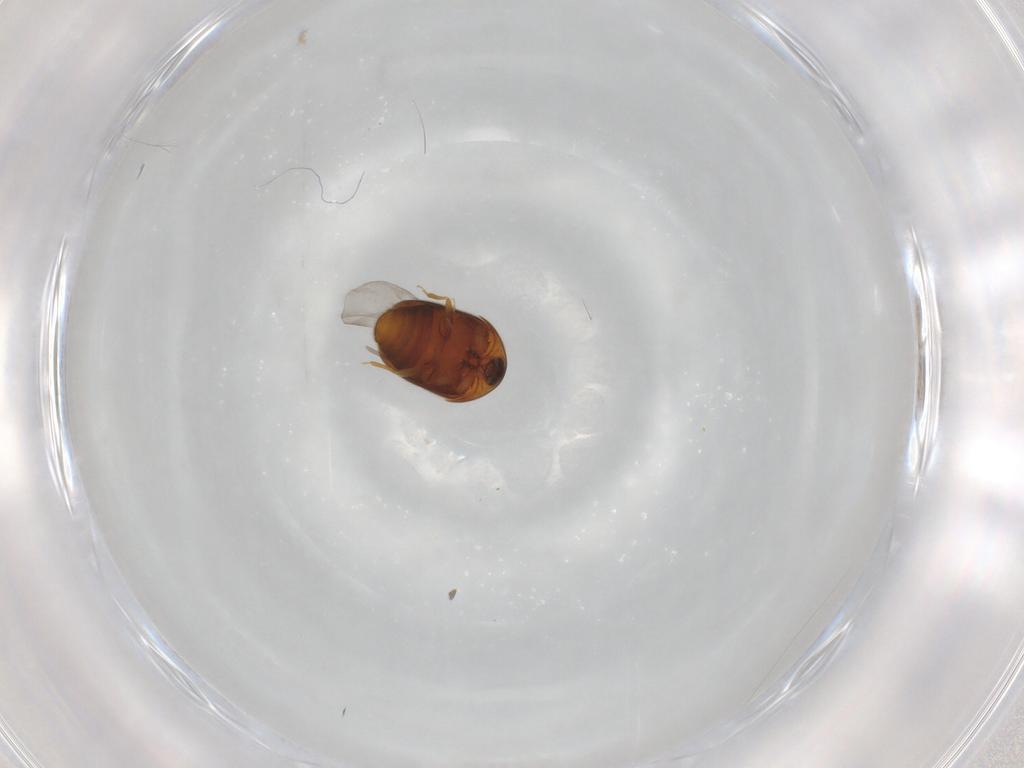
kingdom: Animalia
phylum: Arthropoda
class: Insecta
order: Coleoptera
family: Corylophidae
